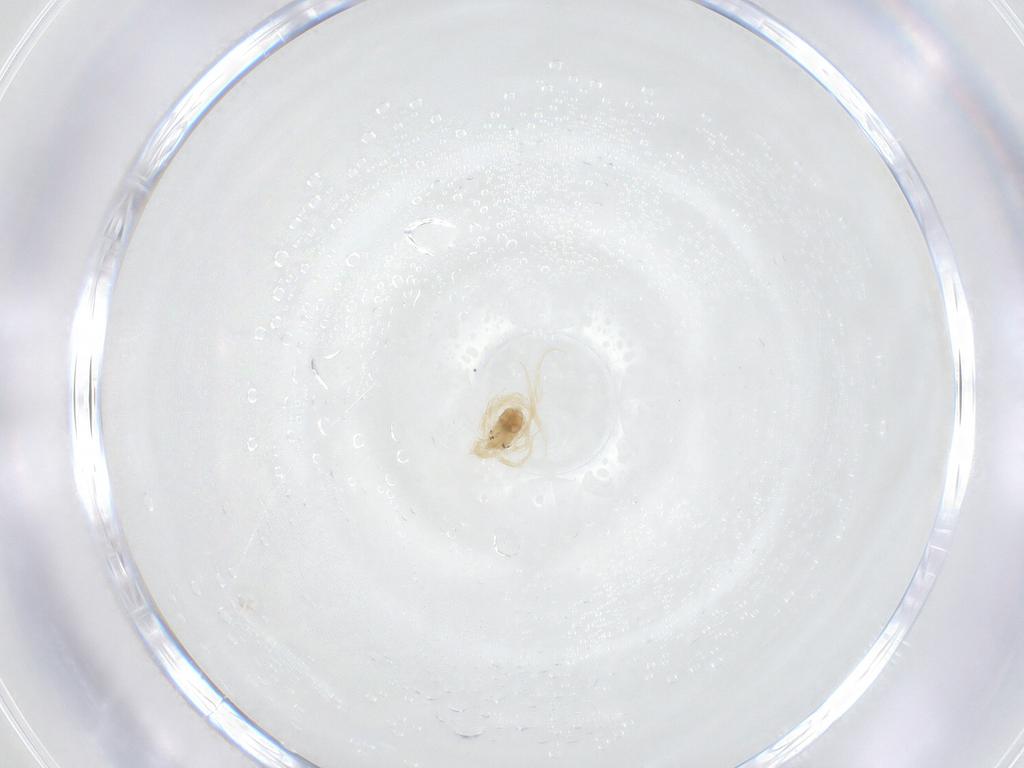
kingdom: Animalia
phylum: Arthropoda
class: Arachnida
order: Trombidiformes
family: Anystidae
